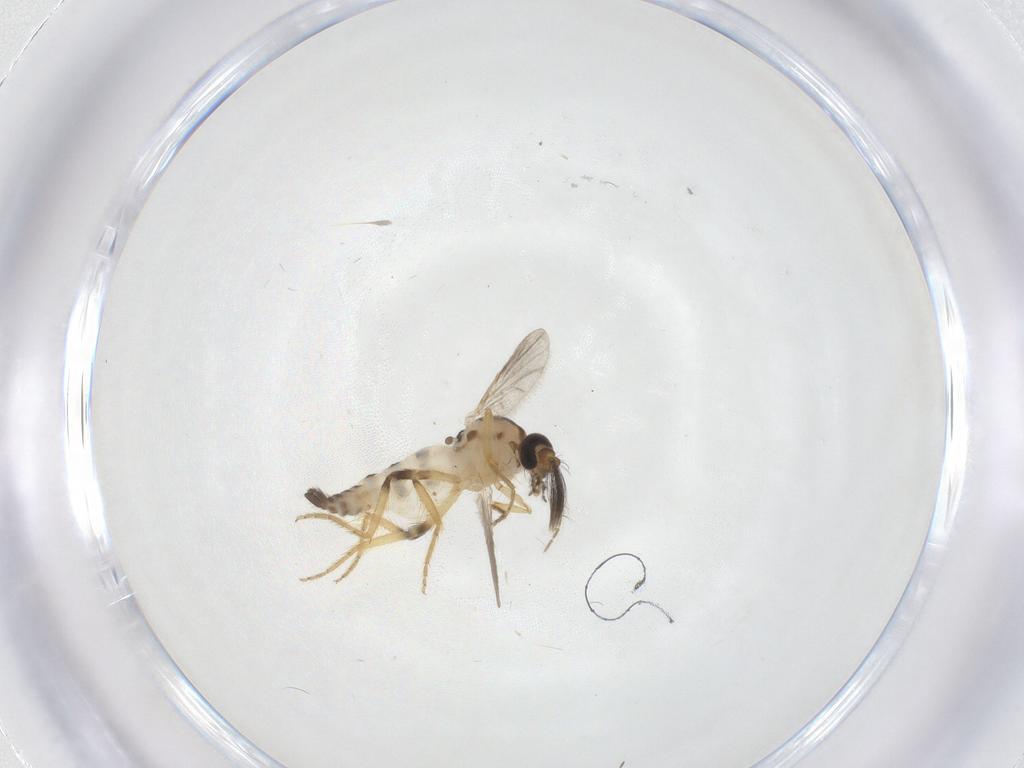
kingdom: Animalia
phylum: Arthropoda
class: Insecta
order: Diptera
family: Ceratopogonidae
